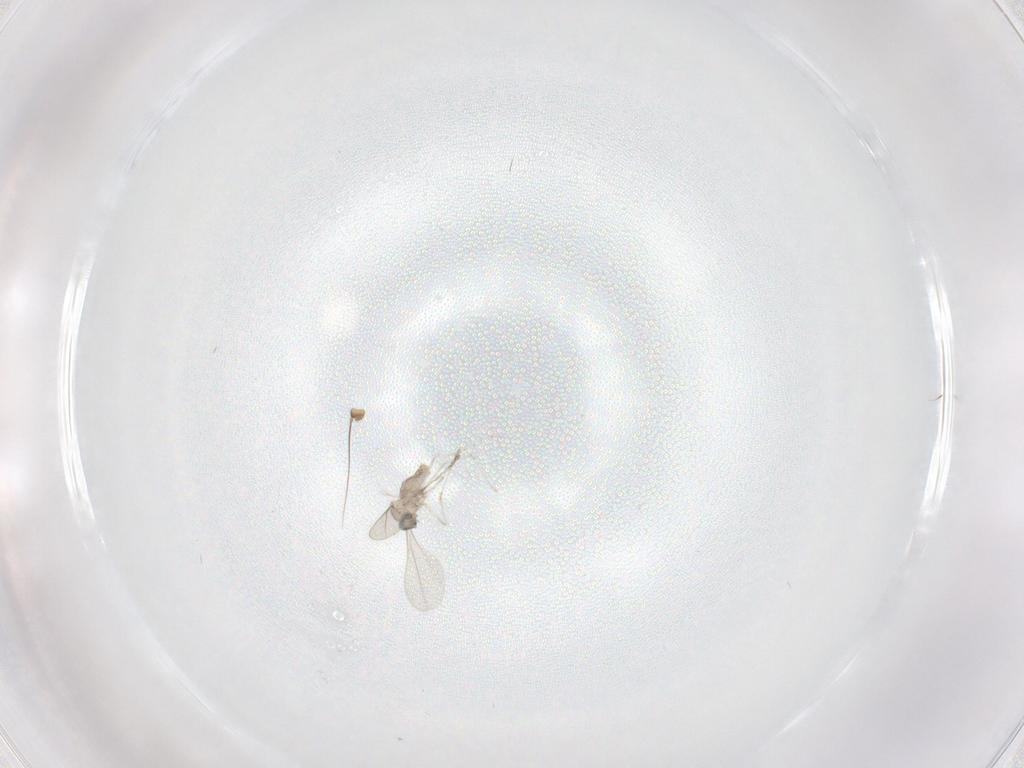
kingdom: Animalia
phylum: Arthropoda
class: Insecta
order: Diptera
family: Dolichopodidae
